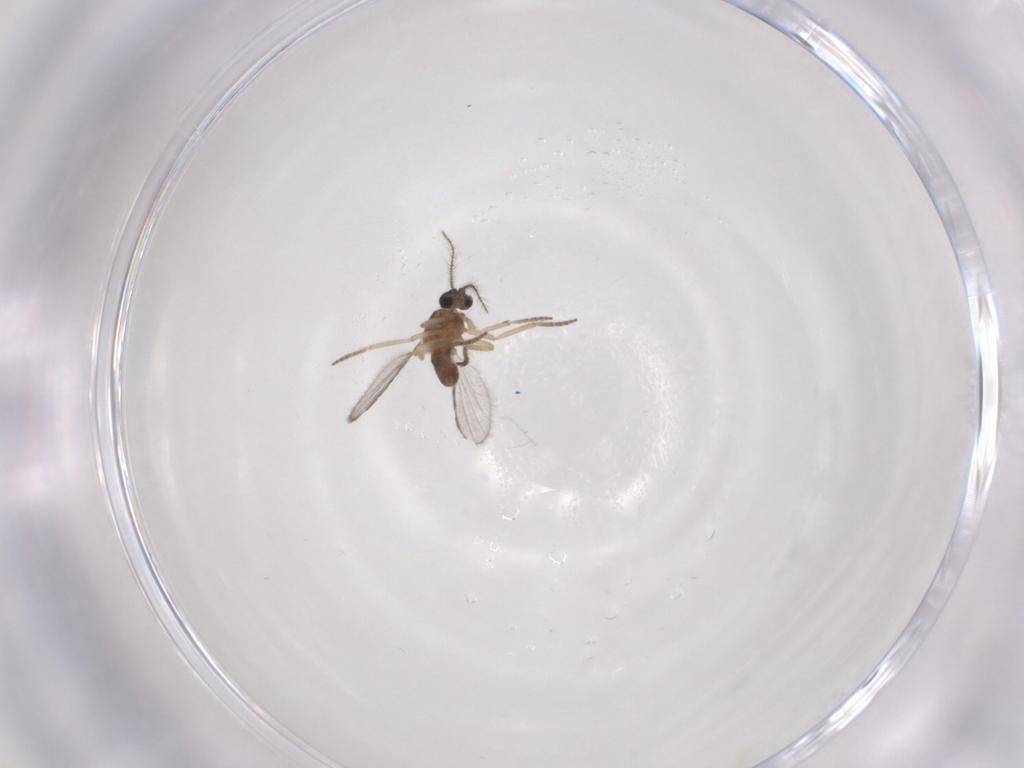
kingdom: Animalia
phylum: Arthropoda
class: Insecta
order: Diptera
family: Ceratopogonidae
